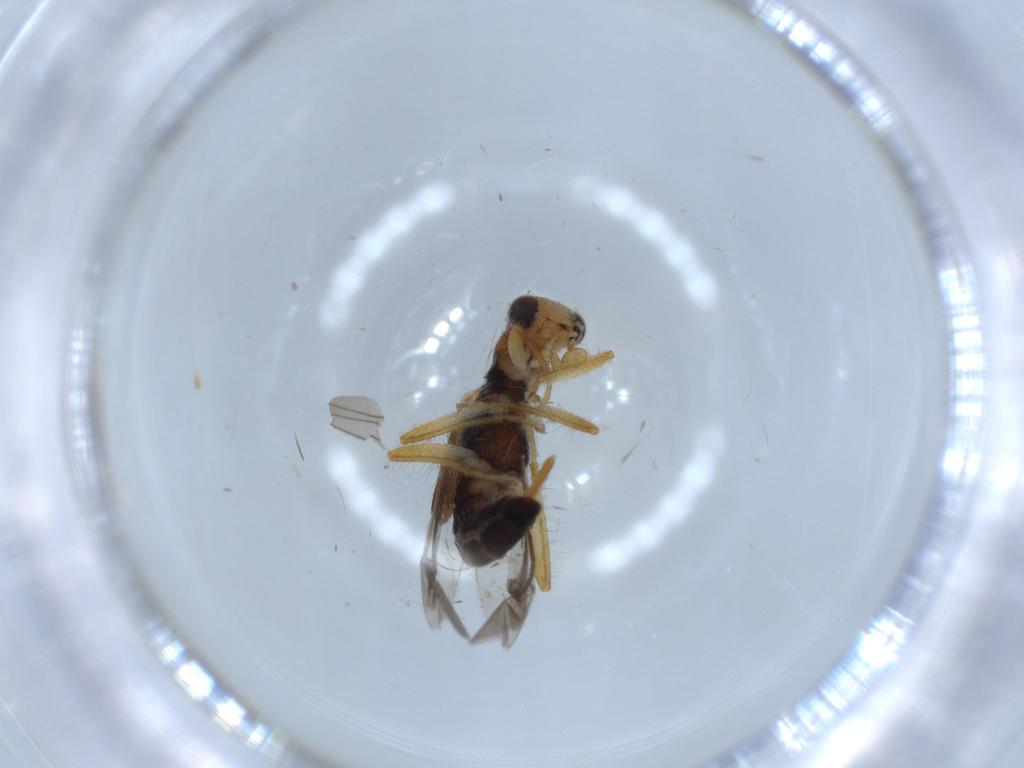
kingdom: Animalia
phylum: Arthropoda
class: Insecta
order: Coleoptera
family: Cleridae
